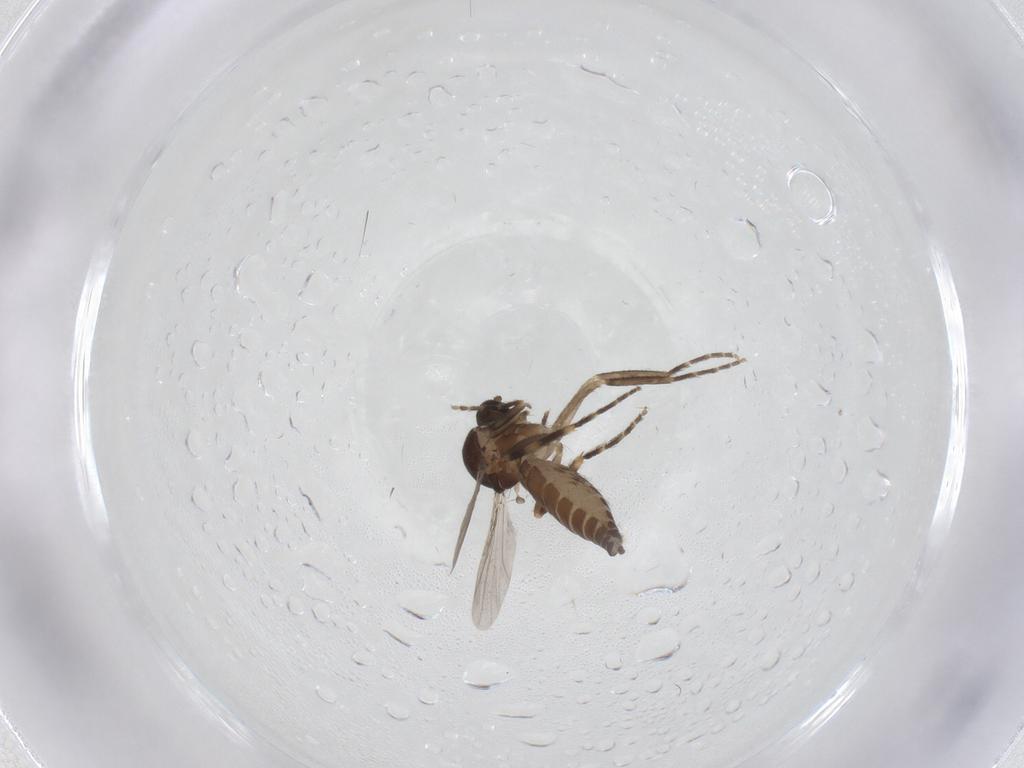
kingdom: Animalia
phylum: Arthropoda
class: Insecta
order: Diptera
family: Ceratopogonidae
